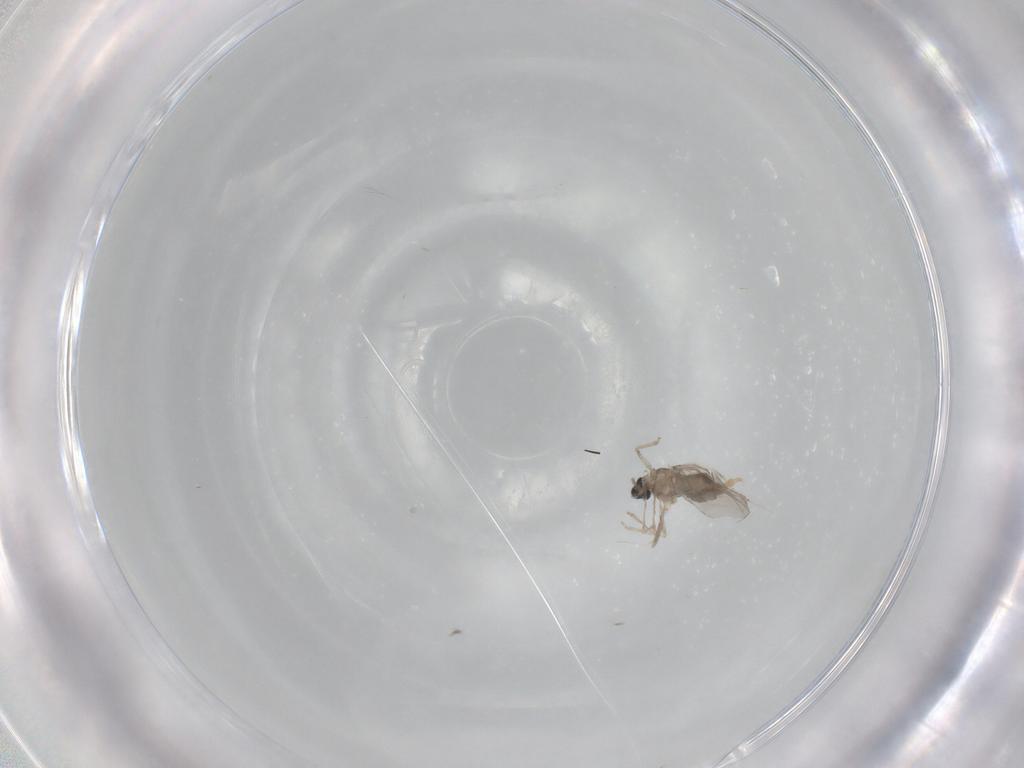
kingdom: Animalia
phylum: Arthropoda
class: Insecta
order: Diptera
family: Cecidomyiidae
